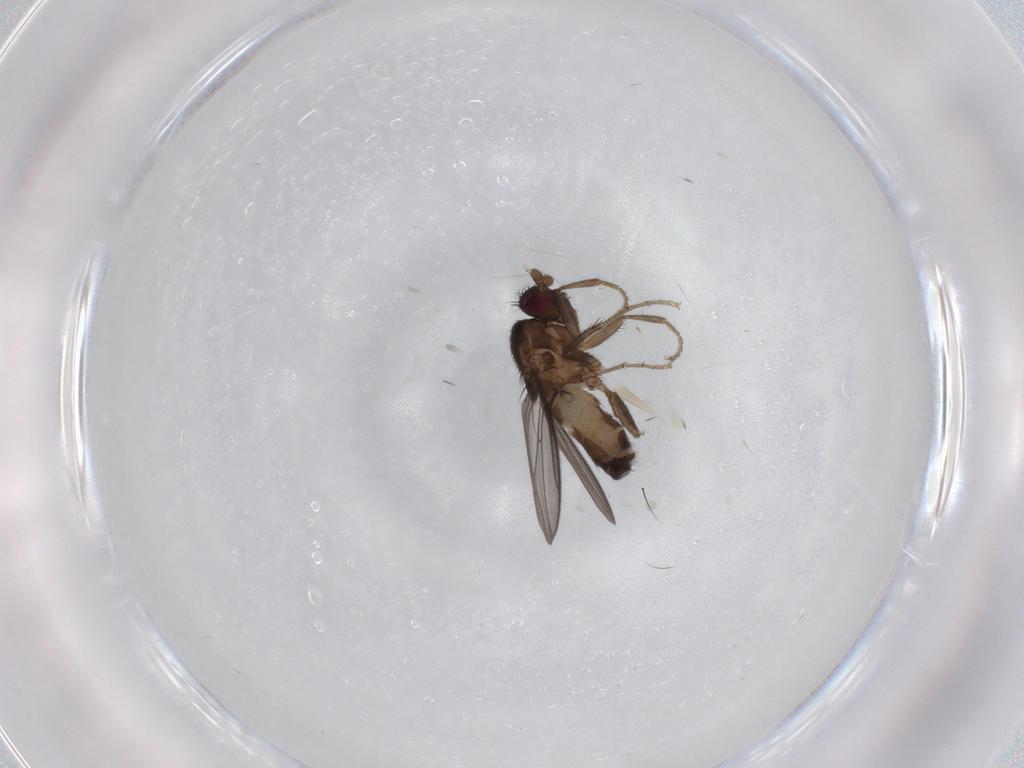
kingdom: Animalia
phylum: Arthropoda
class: Insecta
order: Diptera
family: Sphaeroceridae
